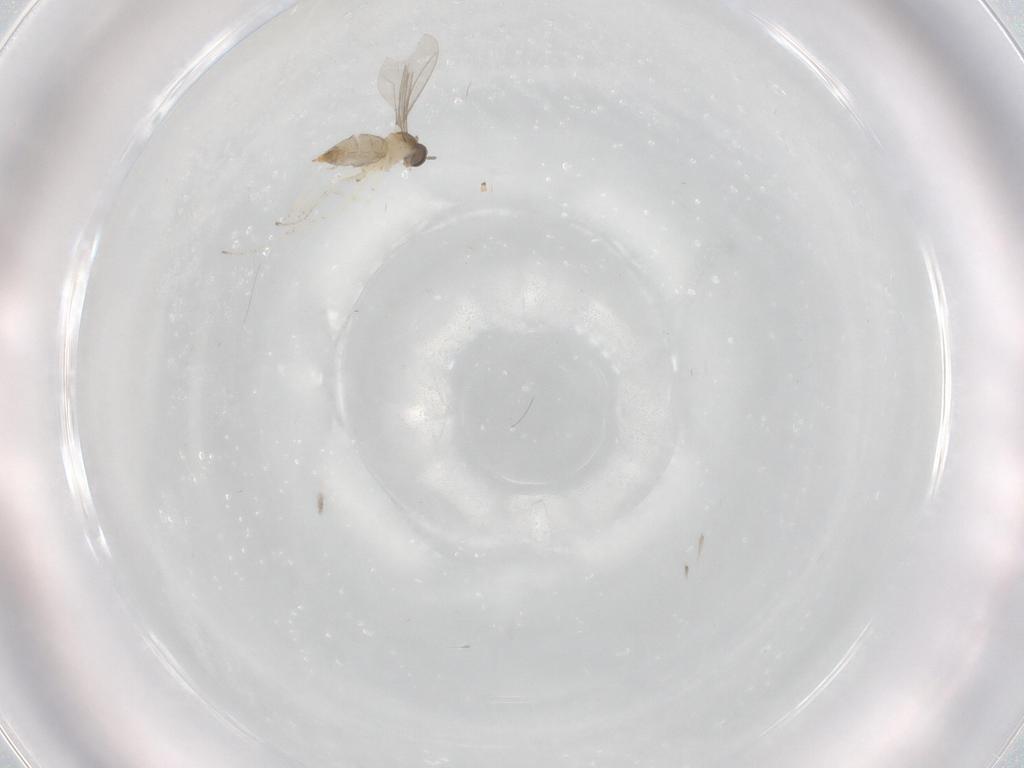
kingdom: Animalia
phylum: Arthropoda
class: Insecta
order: Diptera
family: Cecidomyiidae
